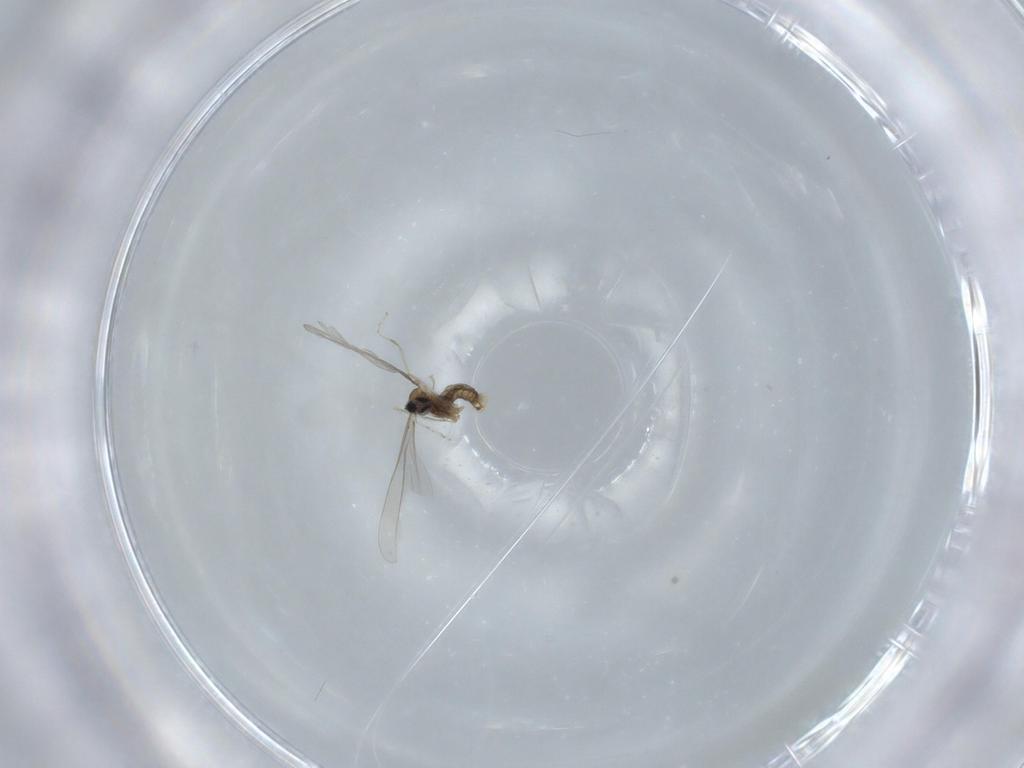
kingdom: Animalia
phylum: Arthropoda
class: Insecta
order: Diptera
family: Cecidomyiidae
